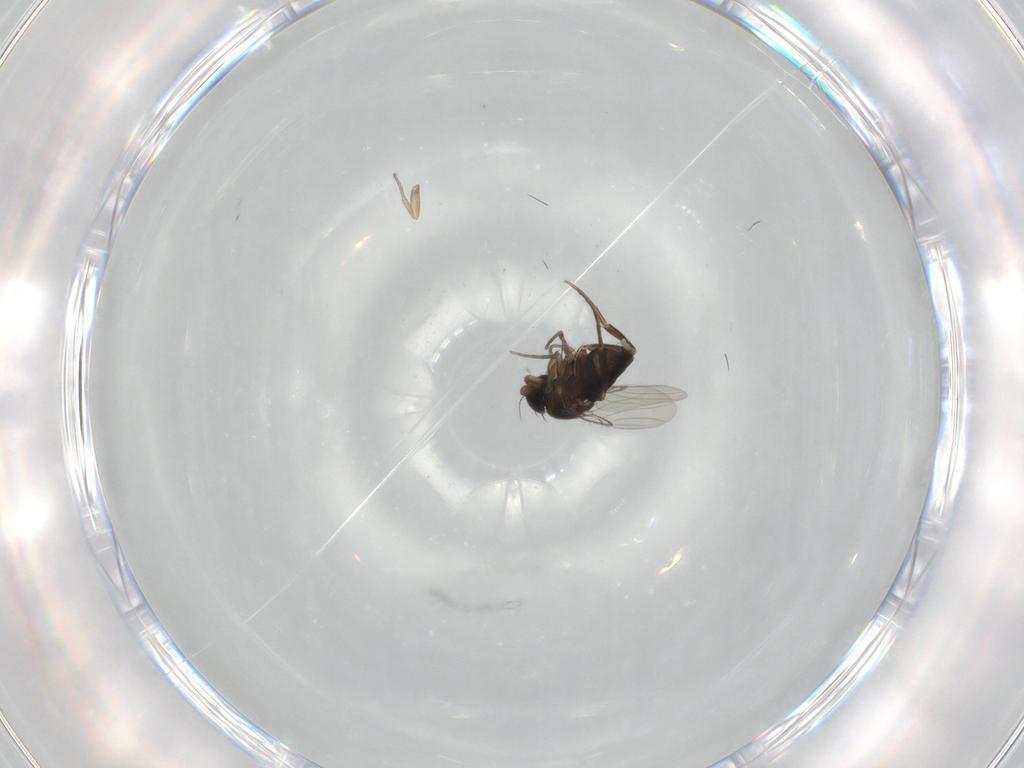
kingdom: Animalia
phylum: Arthropoda
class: Insecta
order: Diptera
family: Phoridae
